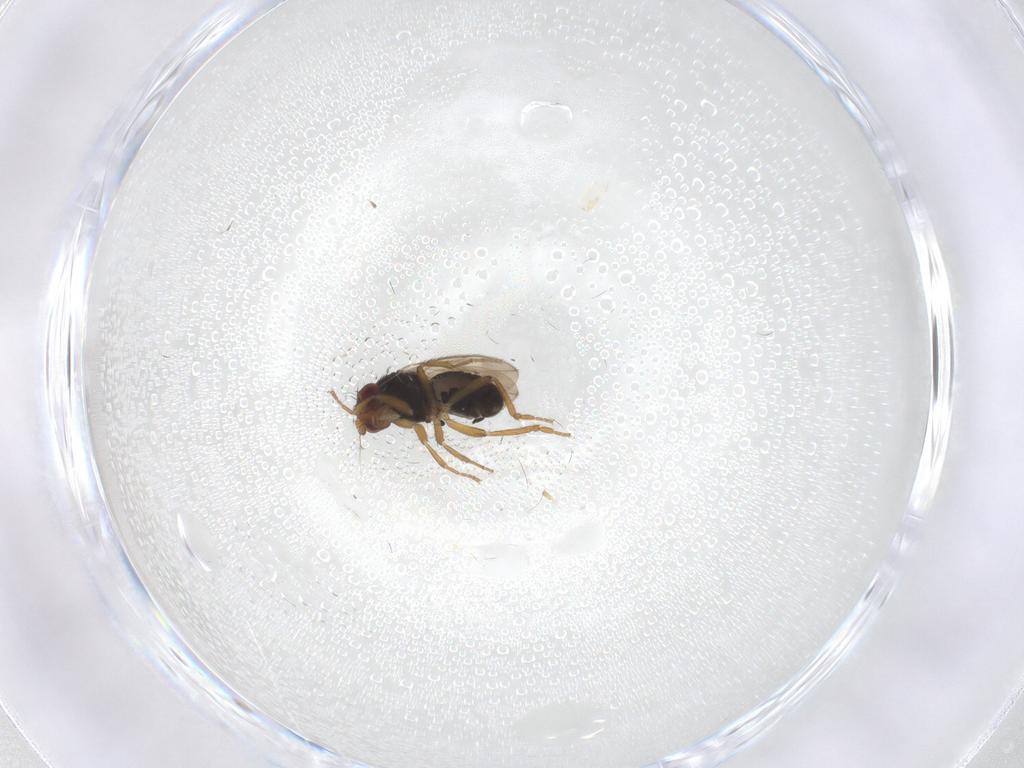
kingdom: Animalia
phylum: Arthropoda
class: Insecta
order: Diptera
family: Sphaeroceridae
